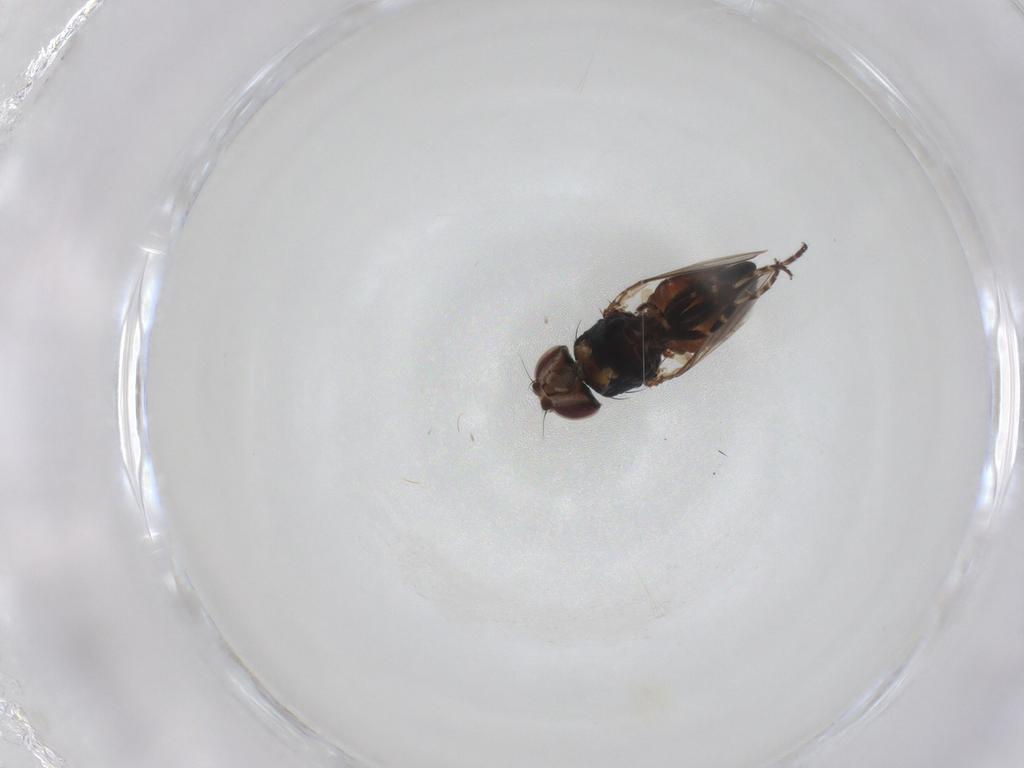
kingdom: Animalia
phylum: Arthropoda
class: Insecta
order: Diptera
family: Milichiidae
